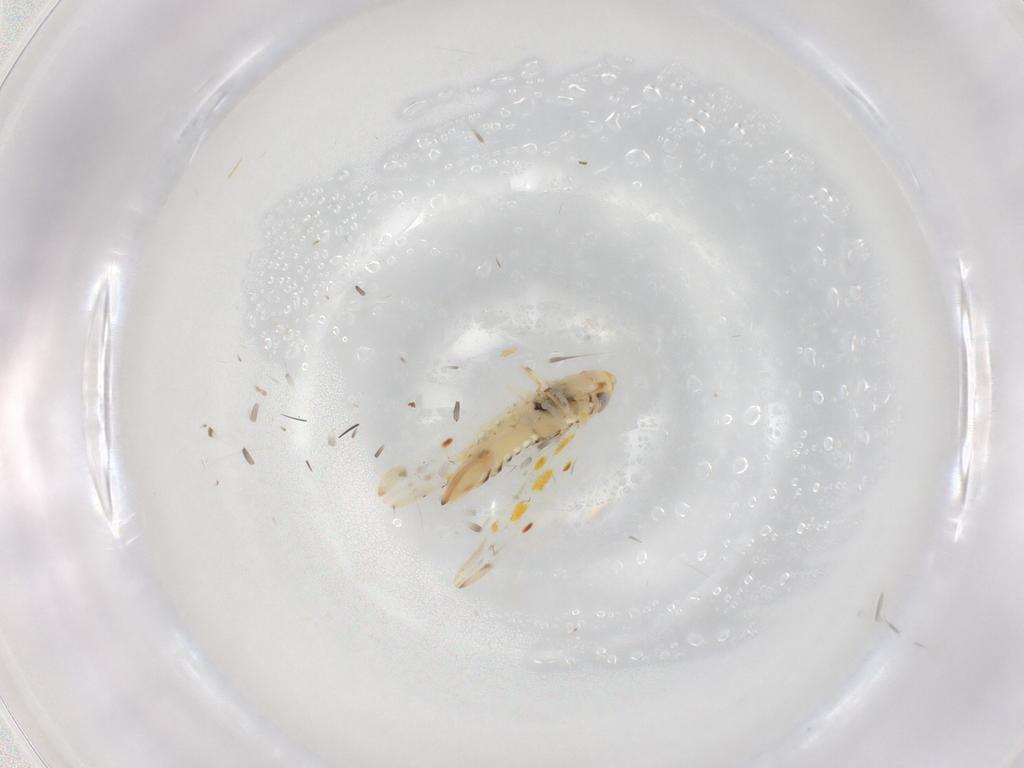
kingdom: Animalia
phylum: Arthropoda
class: Insecta
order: Hemiptera
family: Cicadellidae
